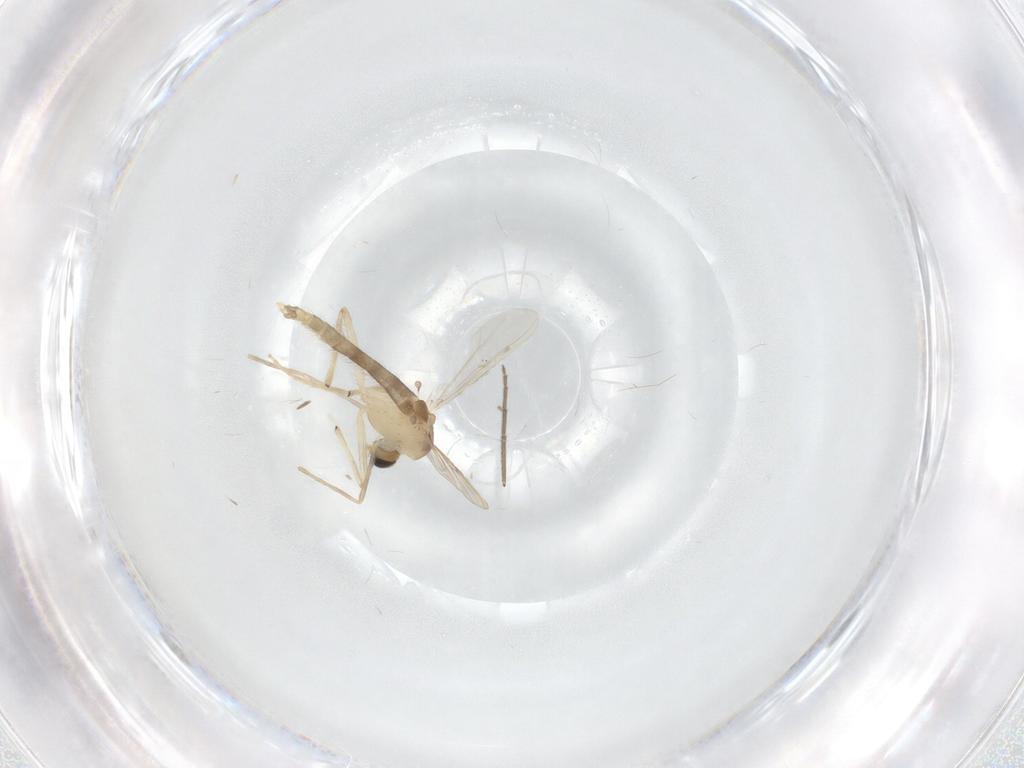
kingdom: Animalia
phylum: Arthropoda
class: Insecta
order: Diptera
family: Chironomidae
